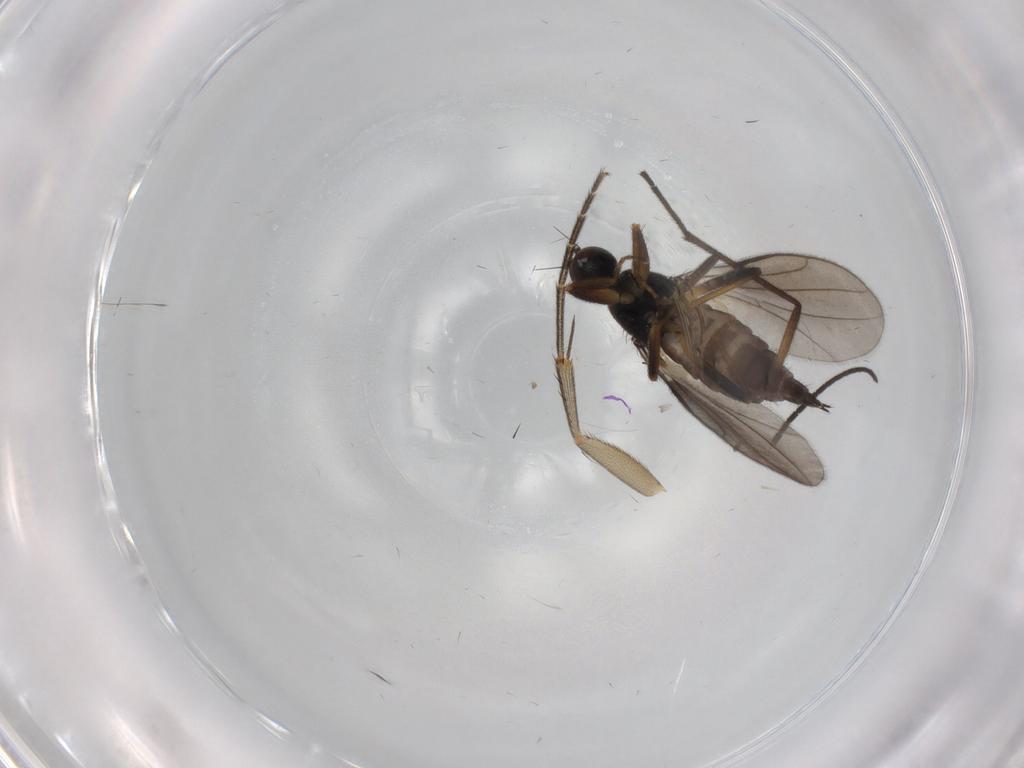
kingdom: Animalia
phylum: Arthropoda
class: Insecta
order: Diptera
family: Hybotidae
